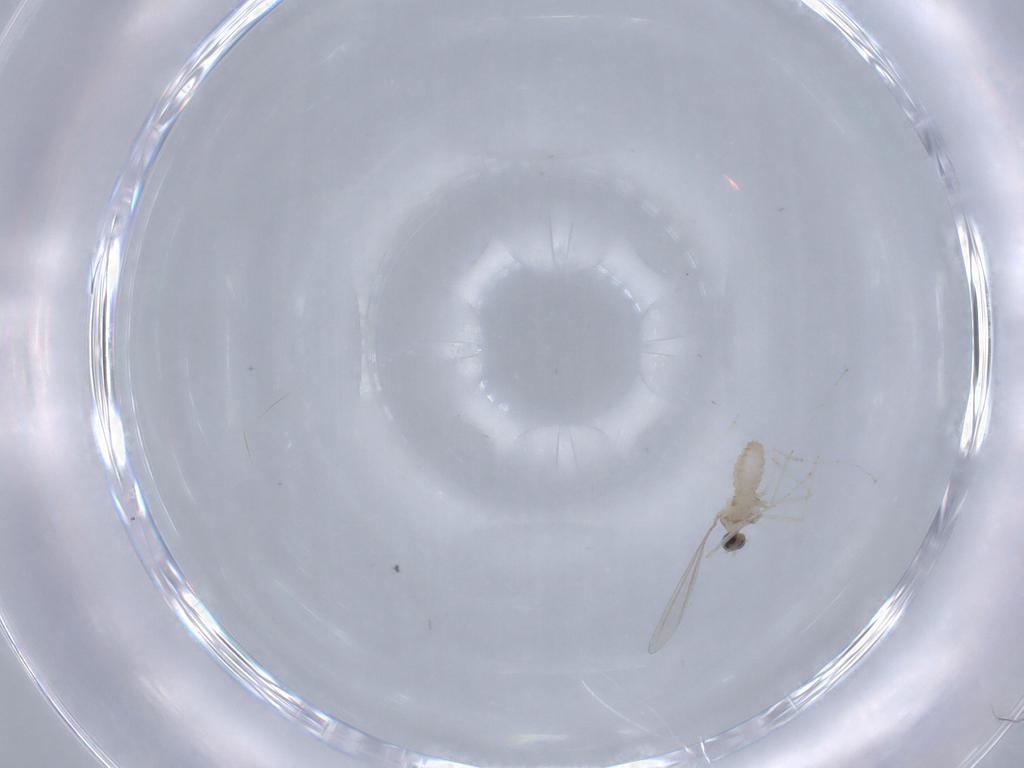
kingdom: Animalia
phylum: Arthropoda
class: Insecta
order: Diptera
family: Cecidomyiidae
